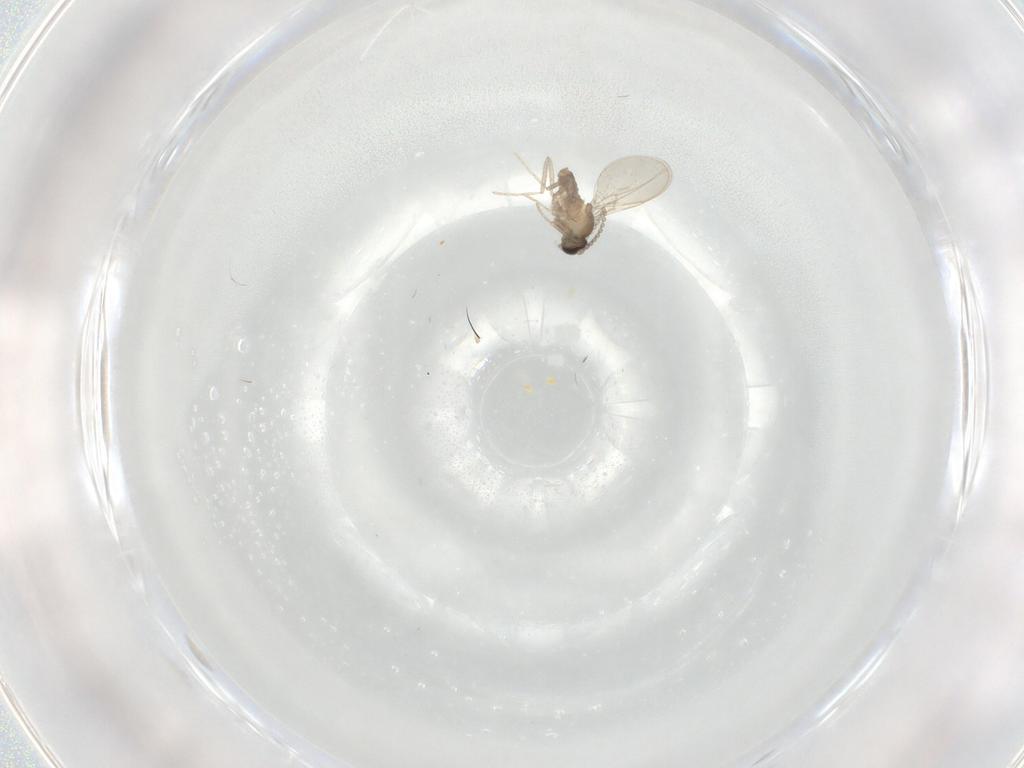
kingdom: Animalia
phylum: Arthropoda
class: Insecta
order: Diptera
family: Cecidomyiidae
